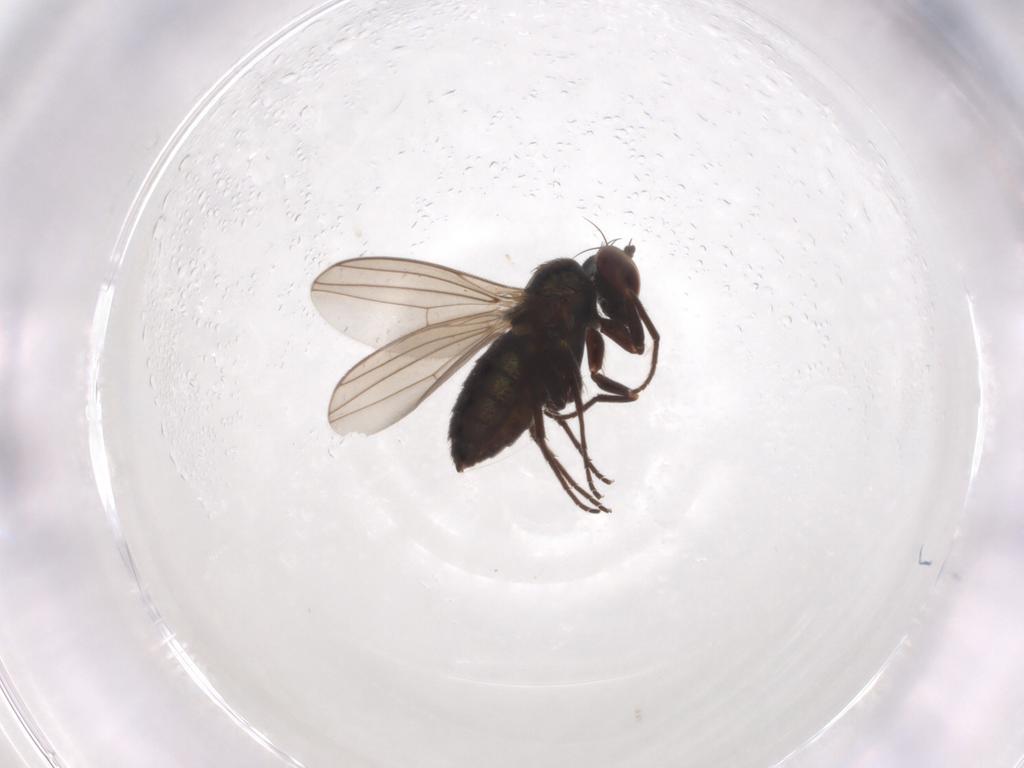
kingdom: Animalia
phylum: Arthropoda
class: Insecta
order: Diptera
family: Dolichopodidae
